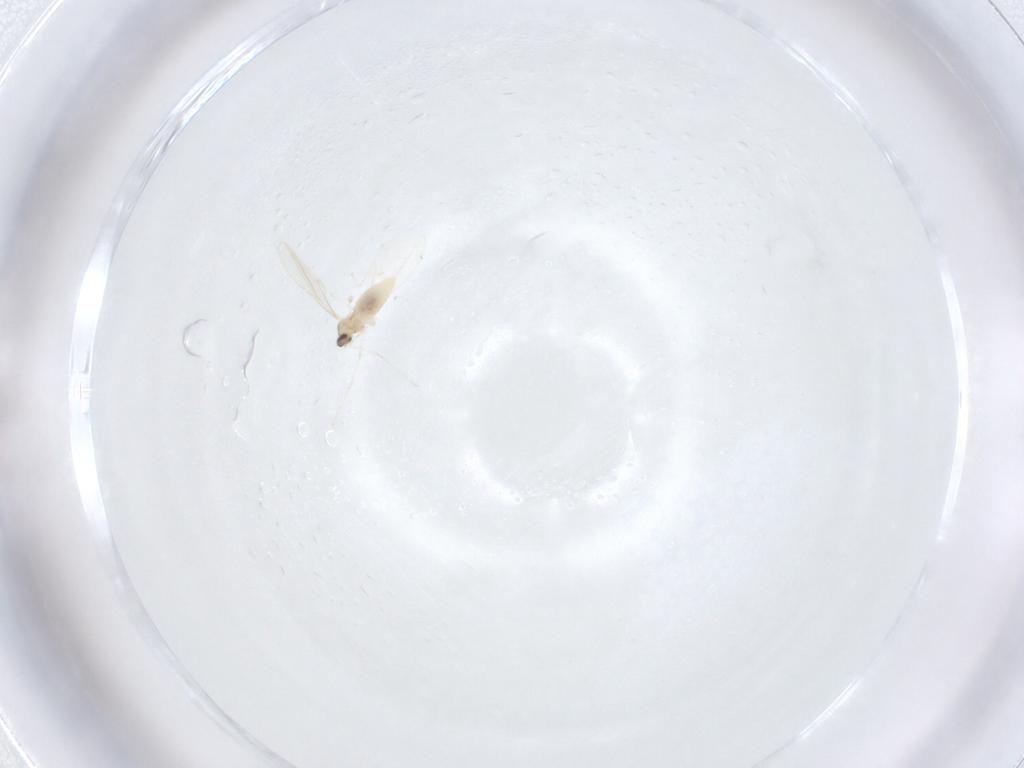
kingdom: Animalia
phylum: Arthropoda
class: Insecta
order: Diptera
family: Cecidomyiidae
